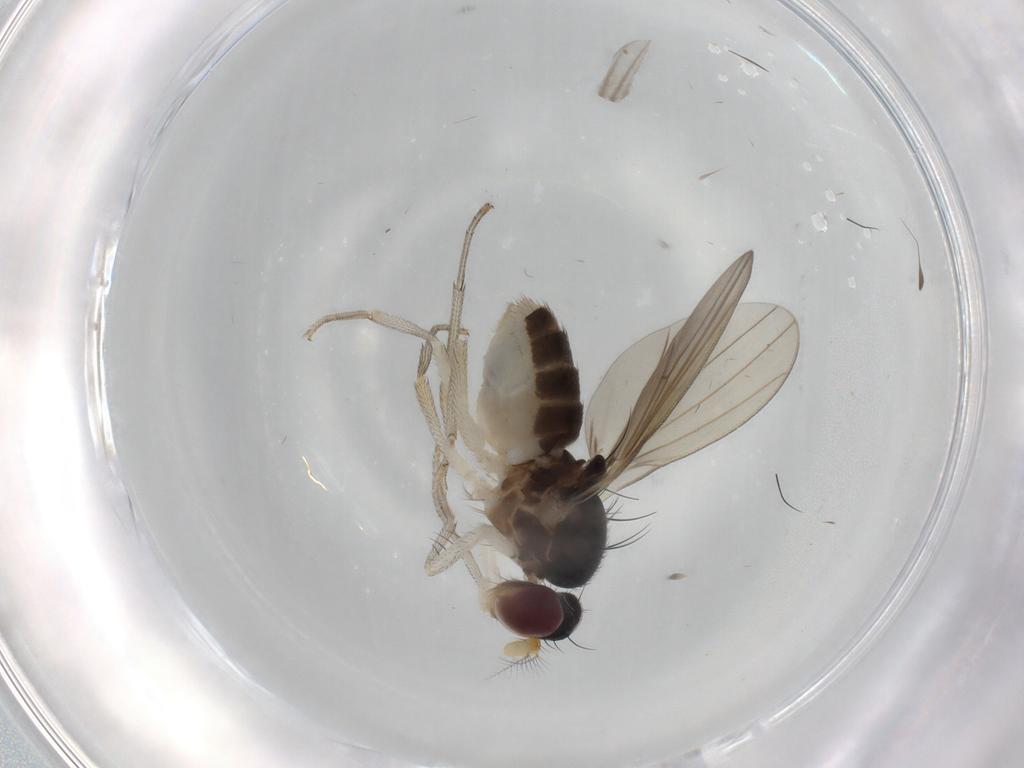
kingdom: Animalia
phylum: Arthropoda
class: Insecta
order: Diptera
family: Lauxaniidae
